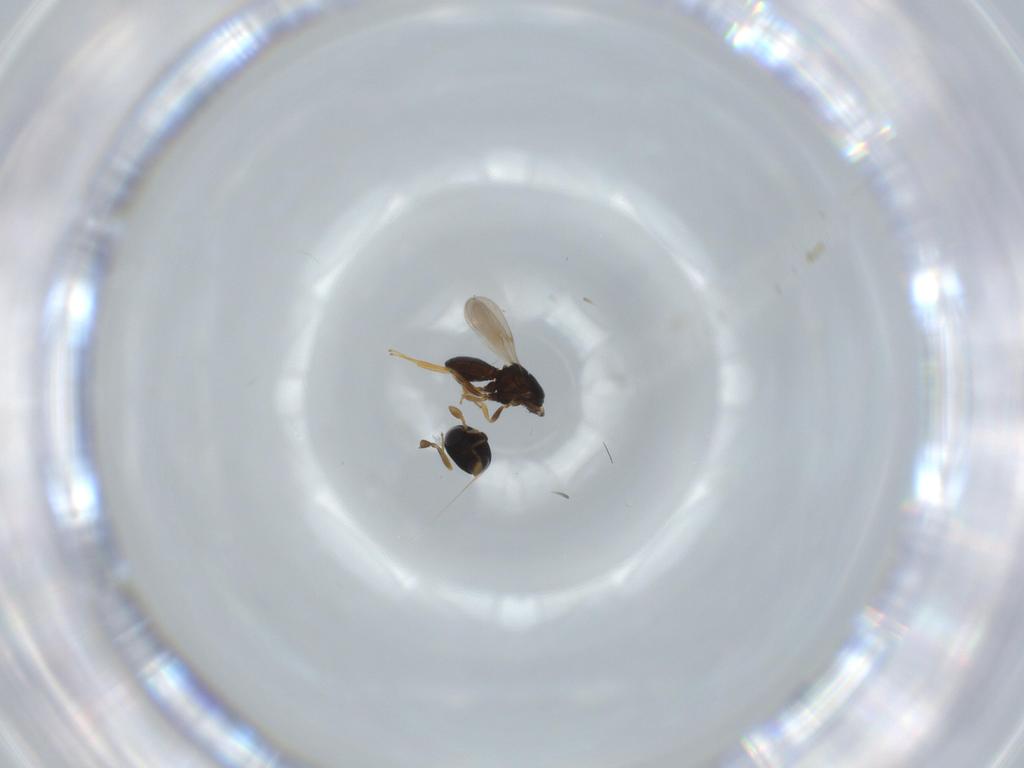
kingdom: Animalia
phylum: Arthropoda
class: Insecta
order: Hymenoptera
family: Scelionidae
